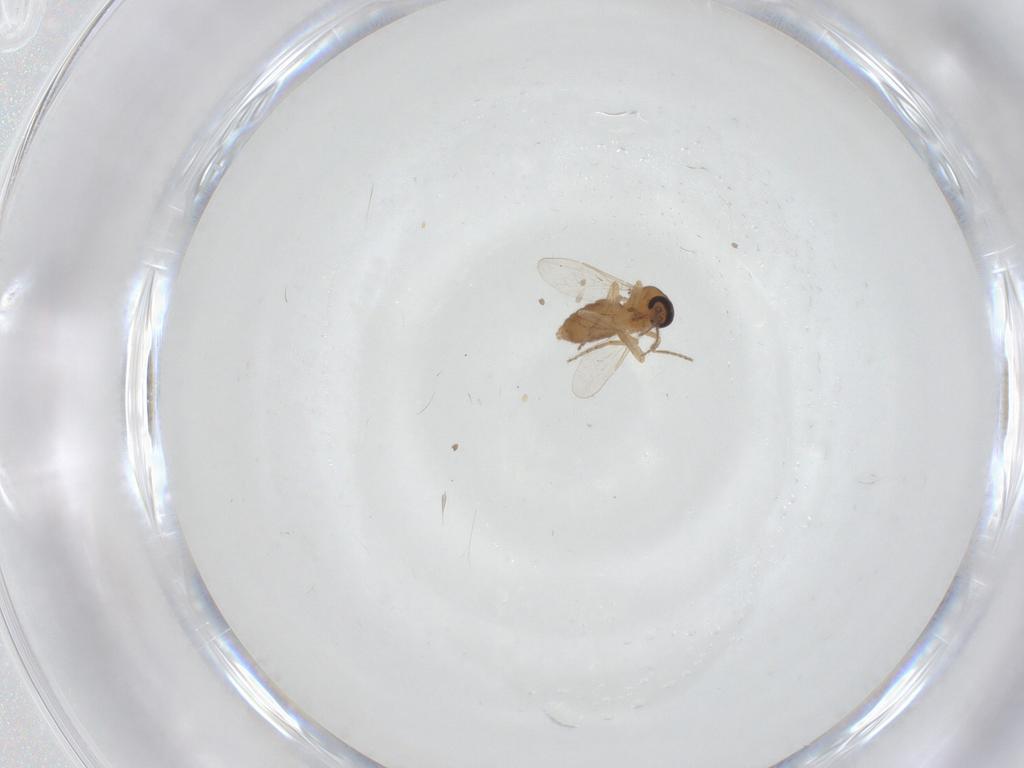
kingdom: Animalia
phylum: Arthropoda
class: Insecta
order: Diptera
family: Ceratopogonidae
